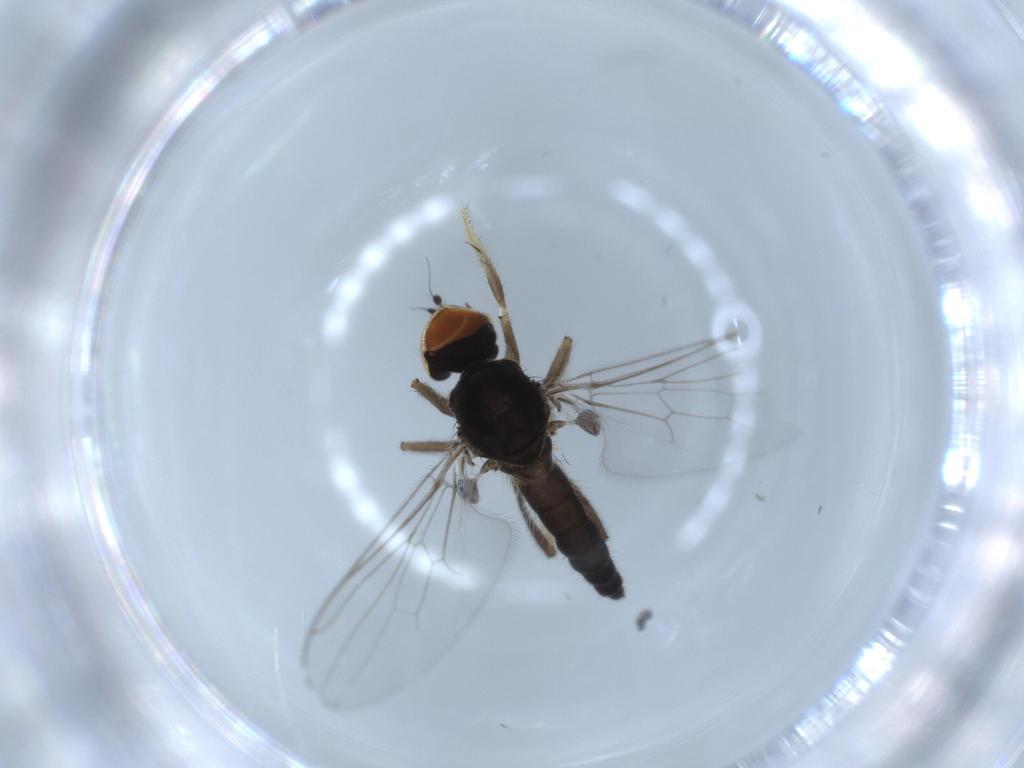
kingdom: Animalia
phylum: Arthropoda
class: Insecta
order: Diptera
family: Hybotidae
